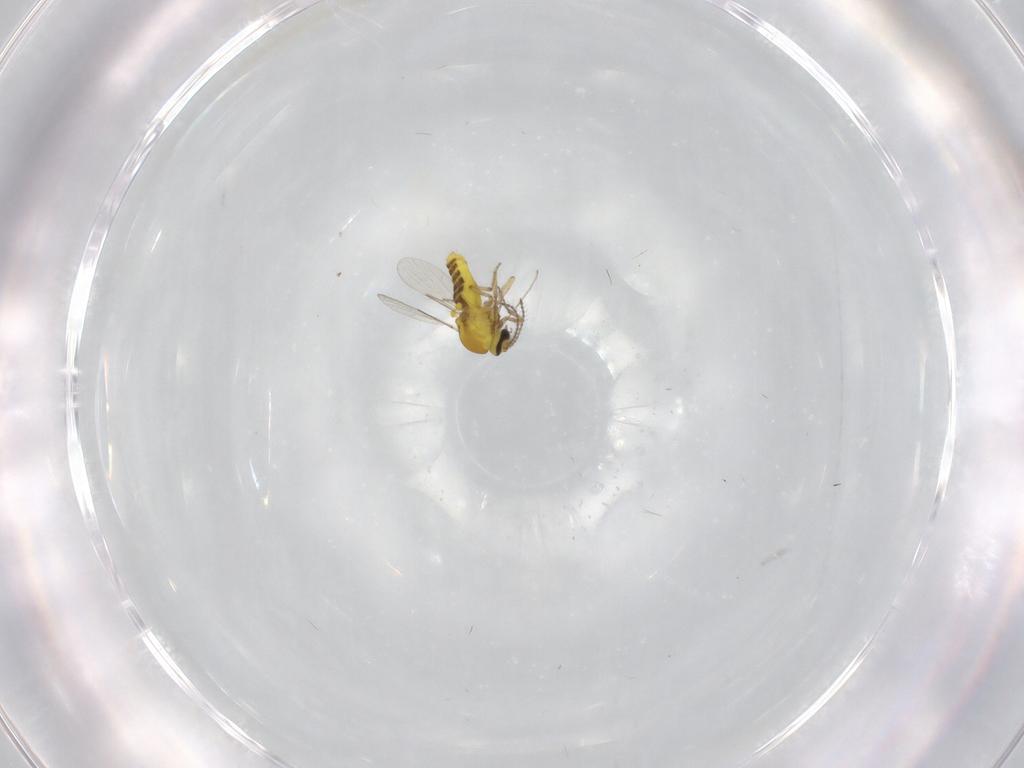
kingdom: Animalia
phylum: Arthropoda
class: Insecta
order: Diptera
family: Ceratopogonidae
